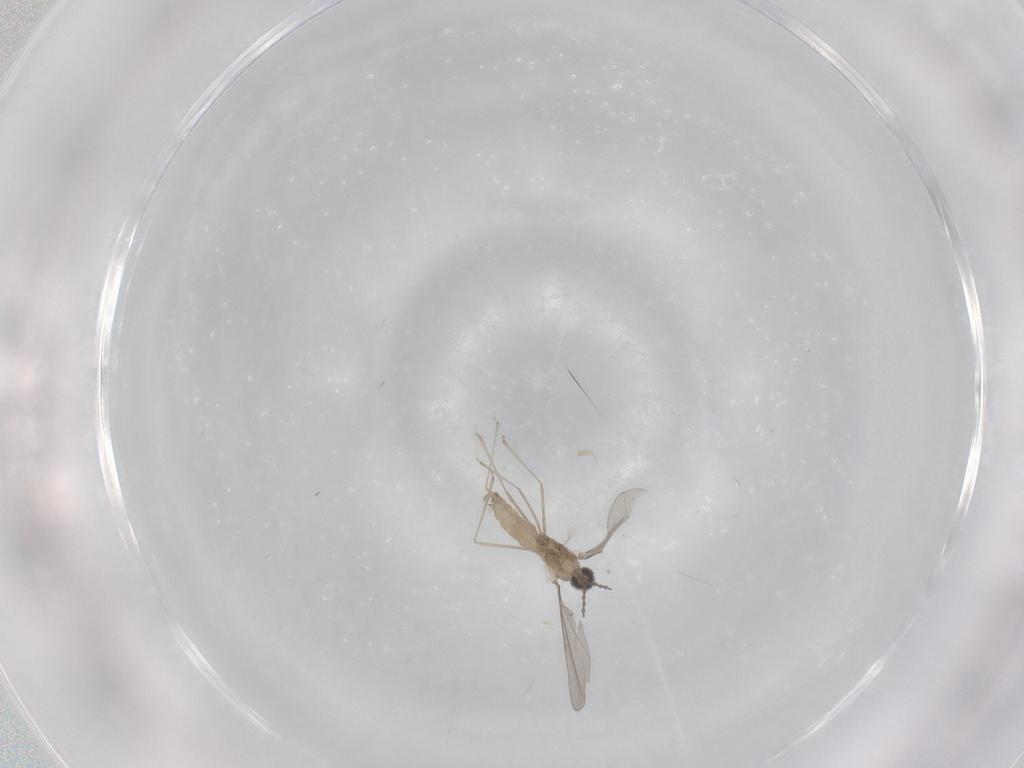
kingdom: Animalia
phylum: Arthropoda
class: Insecta
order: Diptera
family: Cecidomyiidae
